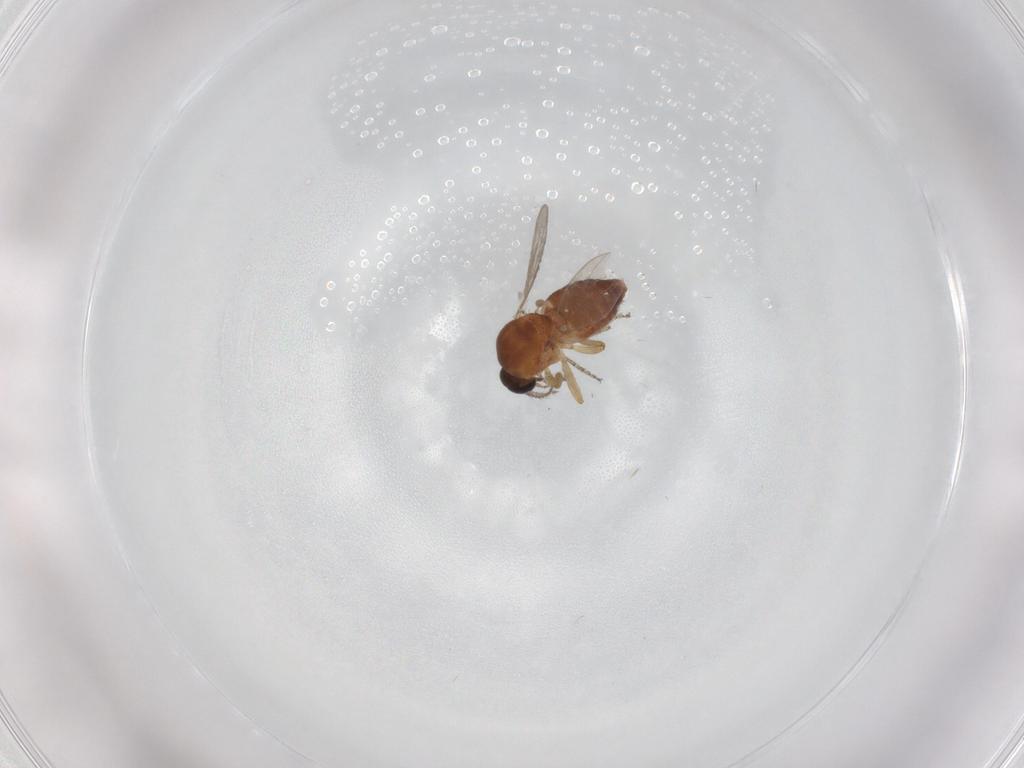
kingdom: Animalia
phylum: Arthropoda
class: Insecta
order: Diptera
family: Ceratopogonidae
